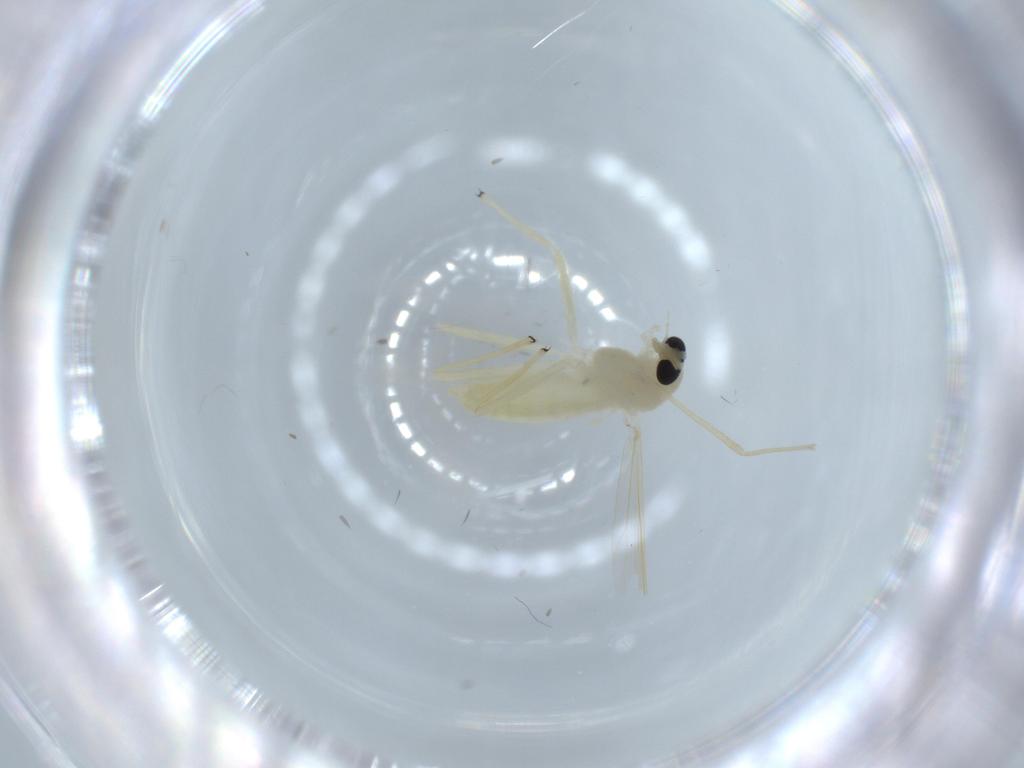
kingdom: Animalia
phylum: Arthropoda
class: Insecta
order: Diptera
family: Chironomidae
